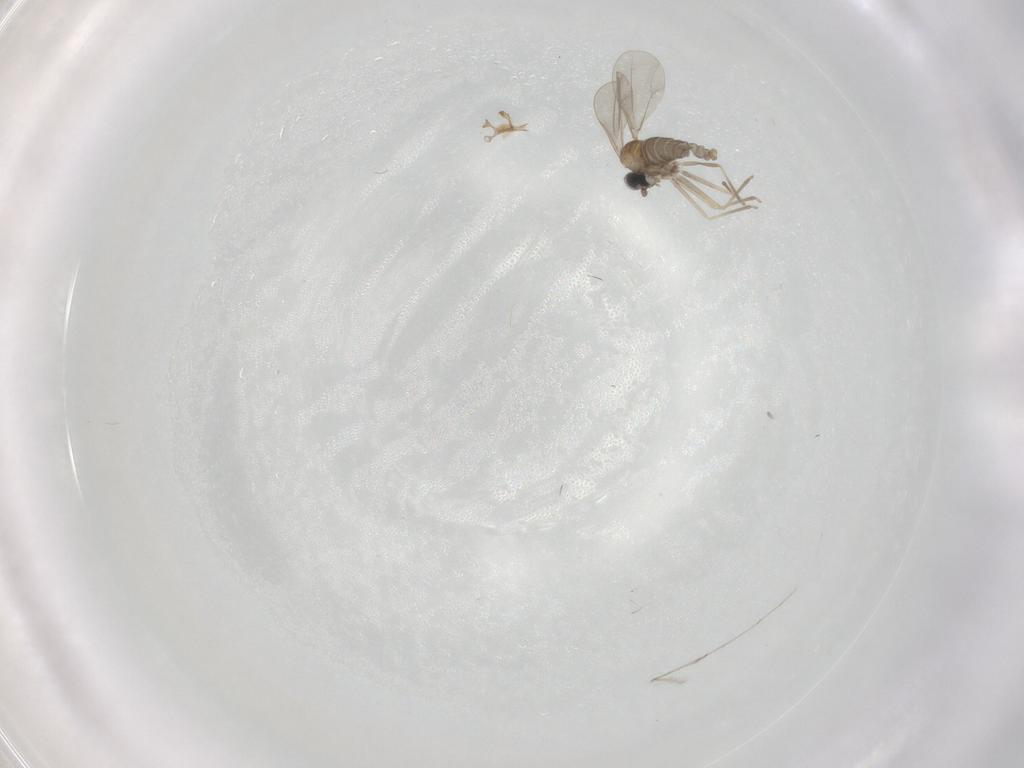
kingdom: Animalia
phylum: Arthropoda
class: Insecta
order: Diptera
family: Cecidomyiidae
